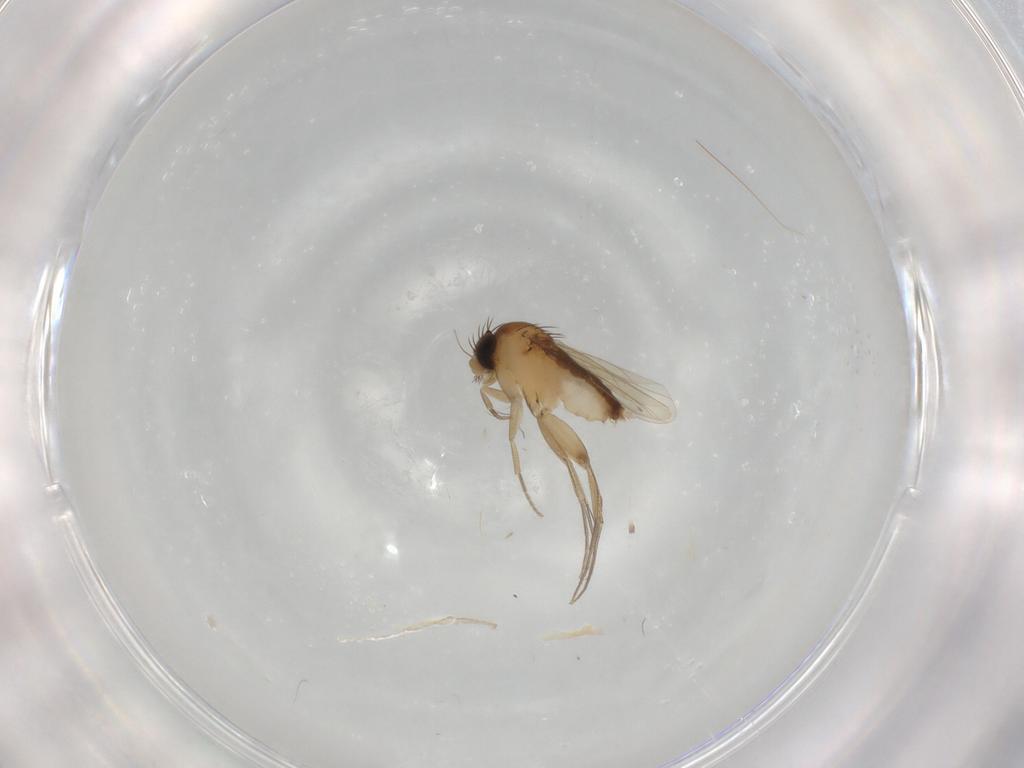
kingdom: Animalia
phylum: Arthropoda
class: Insecta
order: Diptera
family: Phoridae
